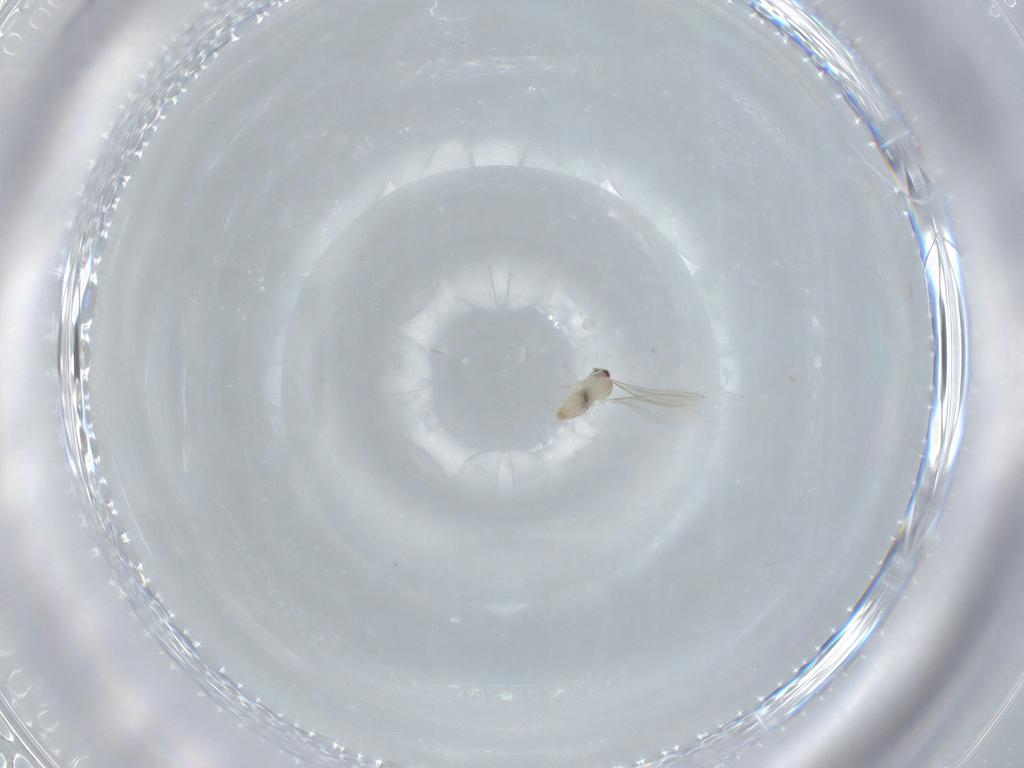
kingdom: Animalia
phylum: Arthropoda
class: Insecta
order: Diptera
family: Cecidomyiidae
